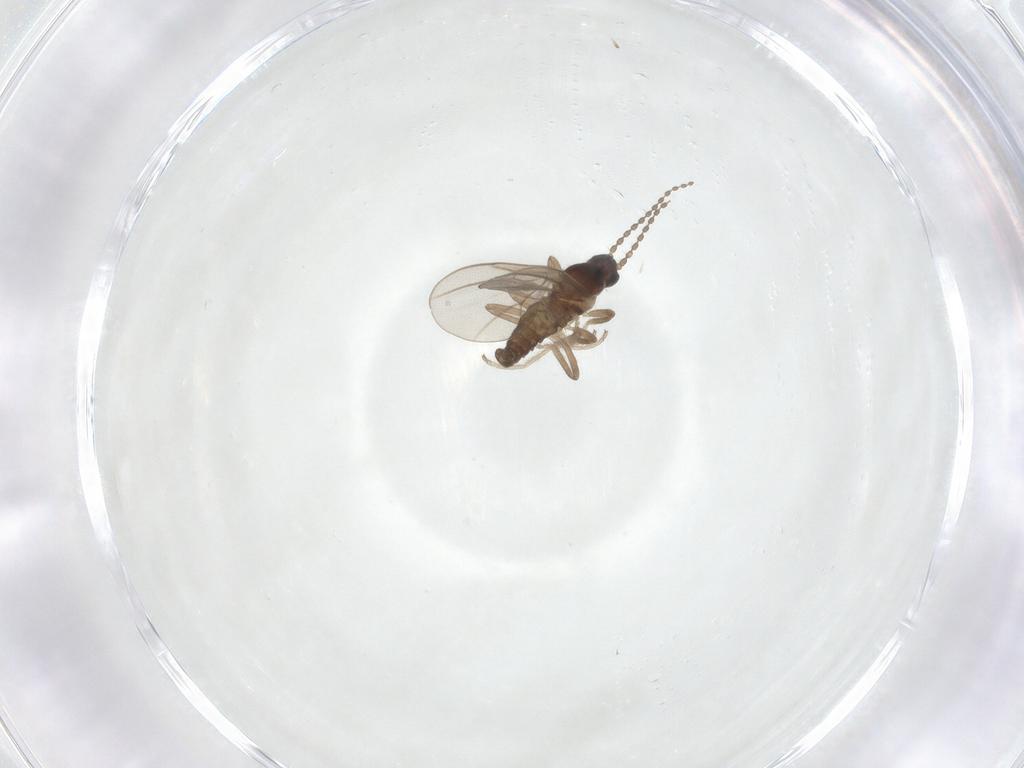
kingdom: Animalia
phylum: Arthropoda
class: Insecta
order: Diptera
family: Cecidomyiidae
